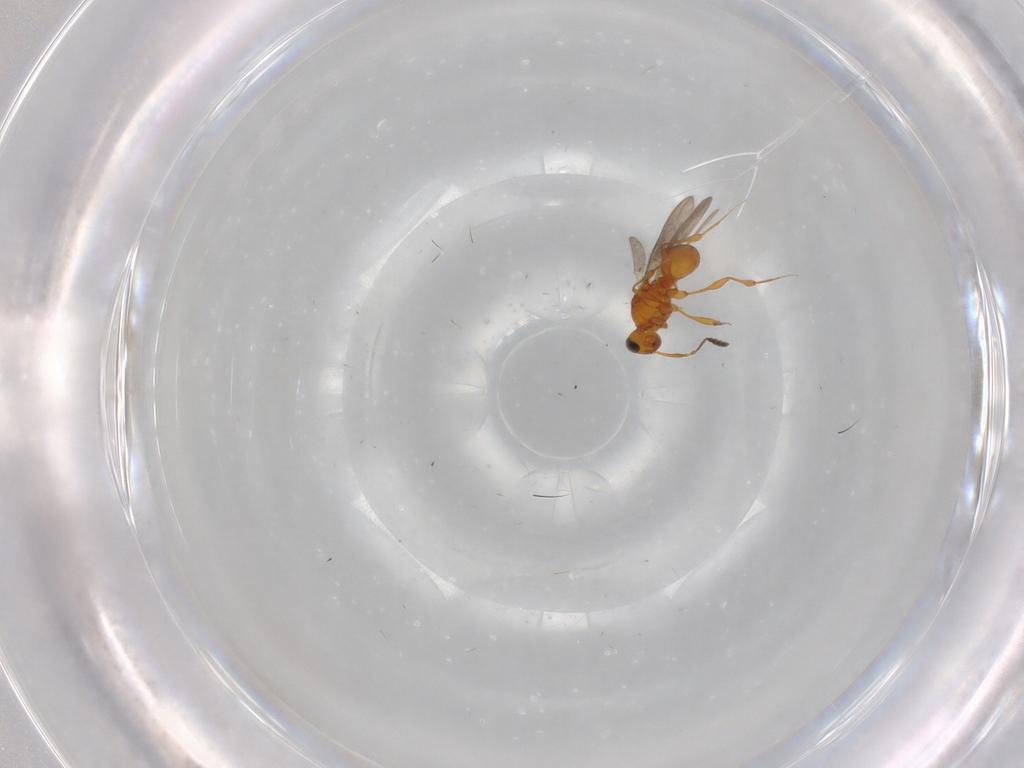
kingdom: Animalia
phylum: Arthropoda
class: Insecta
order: Hymenoptera
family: Platygastridae
